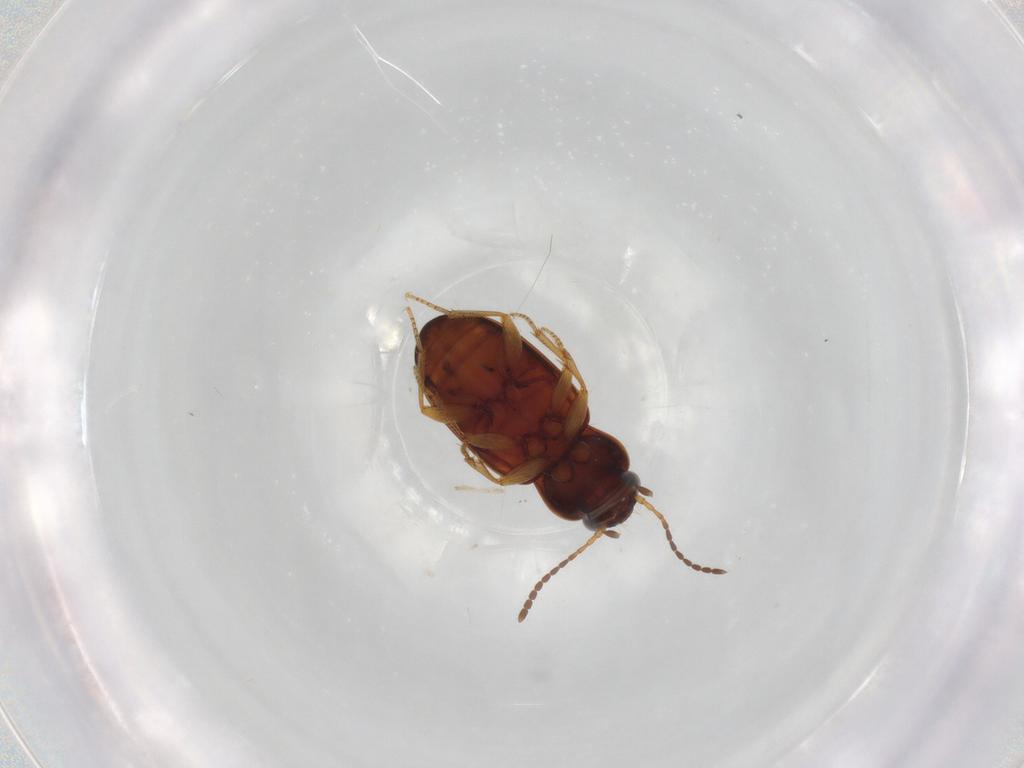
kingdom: Animalia
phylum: Arthropoda
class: Insecta
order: Coleoptera
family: Carabidae
